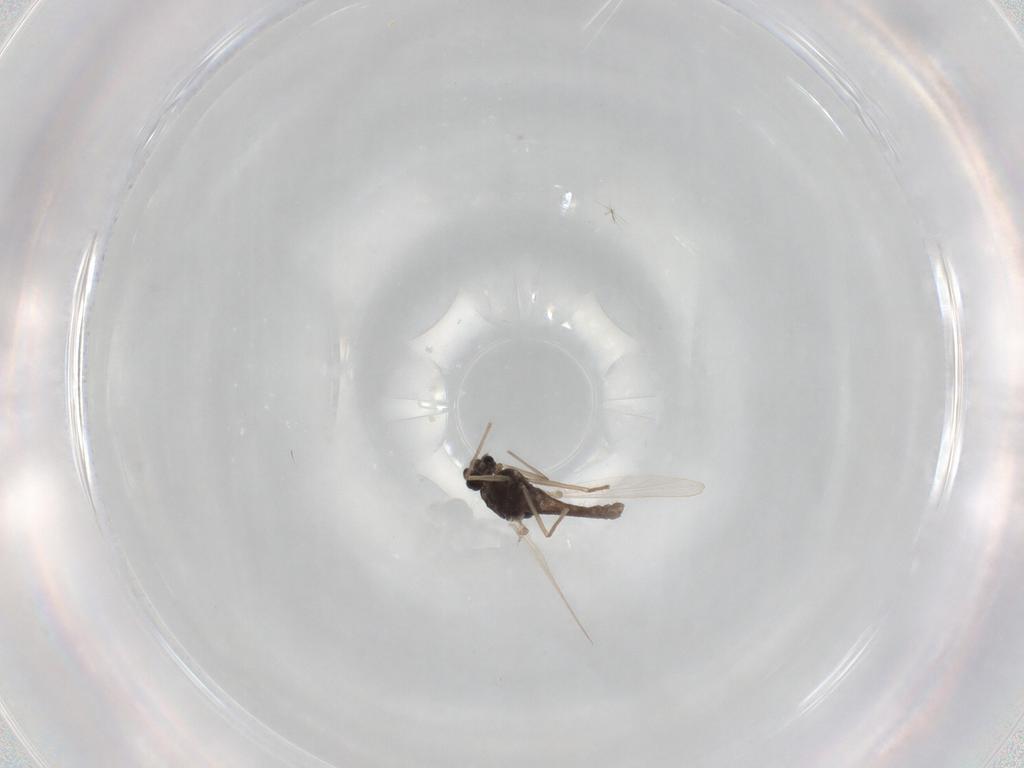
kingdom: Animalia
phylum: Arthropoda
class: Insecta
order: Diptera
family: Chironomidae
